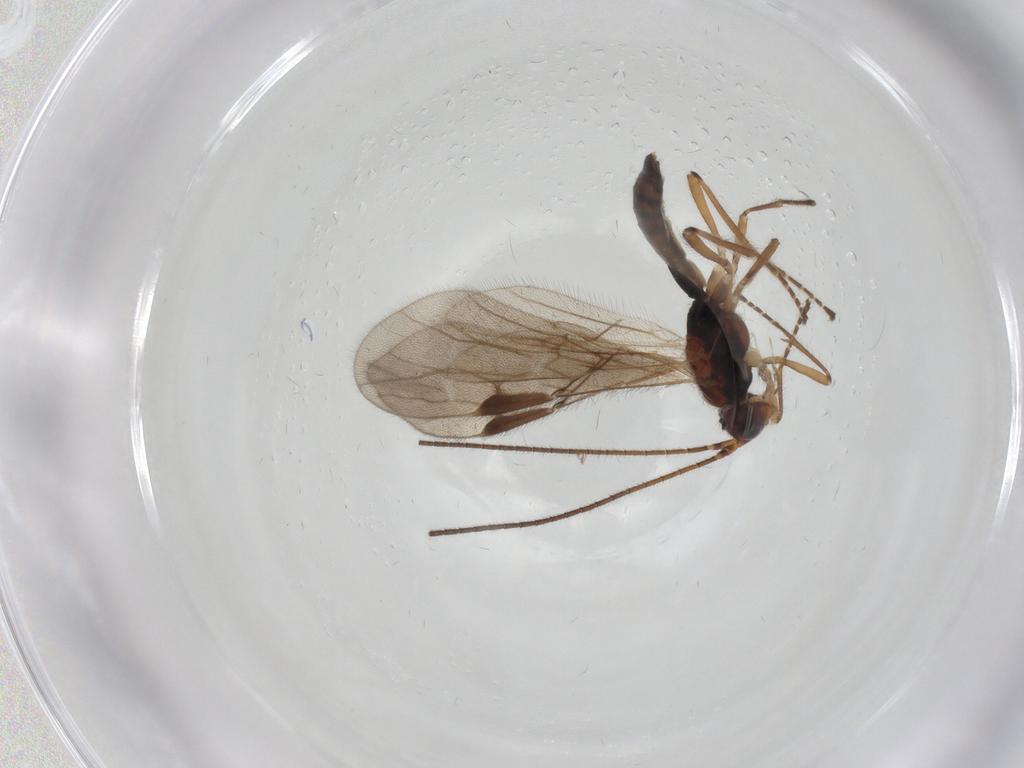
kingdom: Animalia
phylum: Arthropoda
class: Insecta
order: Hymenoptera
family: Braconidae
